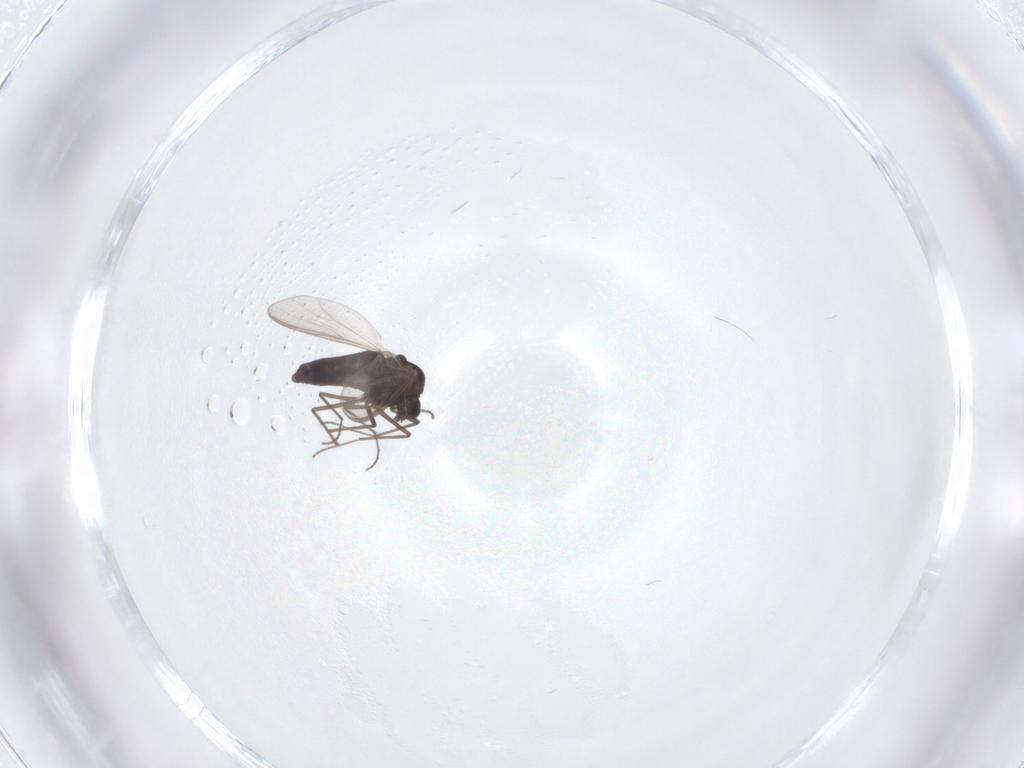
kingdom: Animalia
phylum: Arthropoda
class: Insecta
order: Diptera
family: Chironomidae
